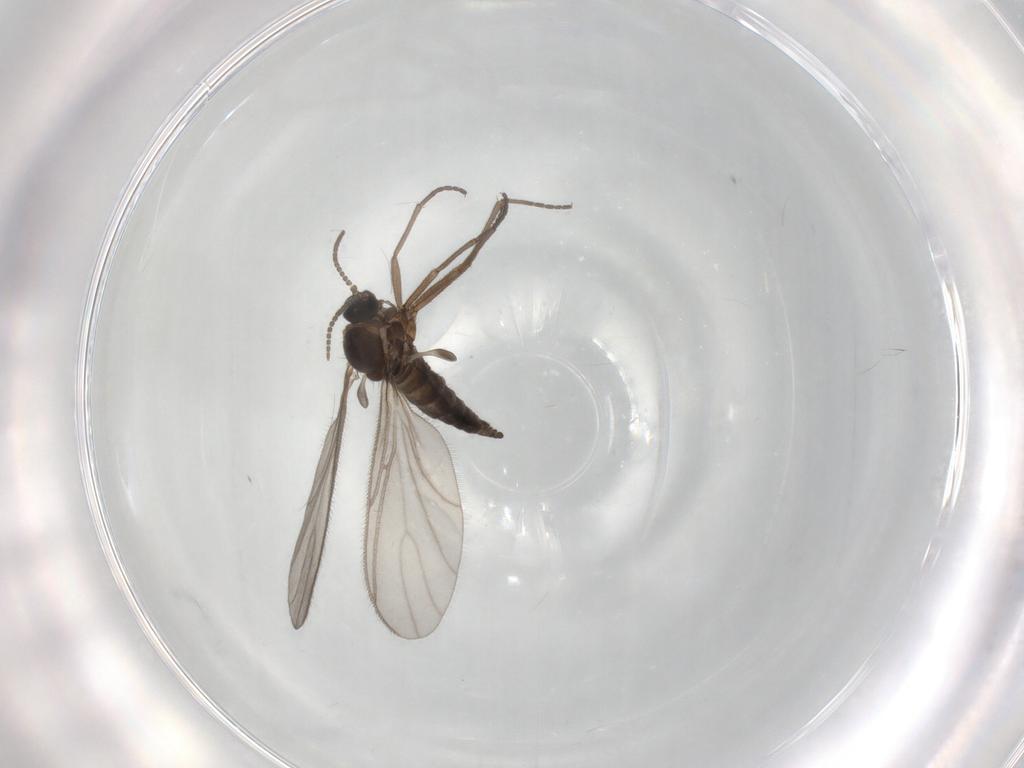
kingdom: Animalia
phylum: Arthropoda
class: Insecta
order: Diptera
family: Sciaridae
